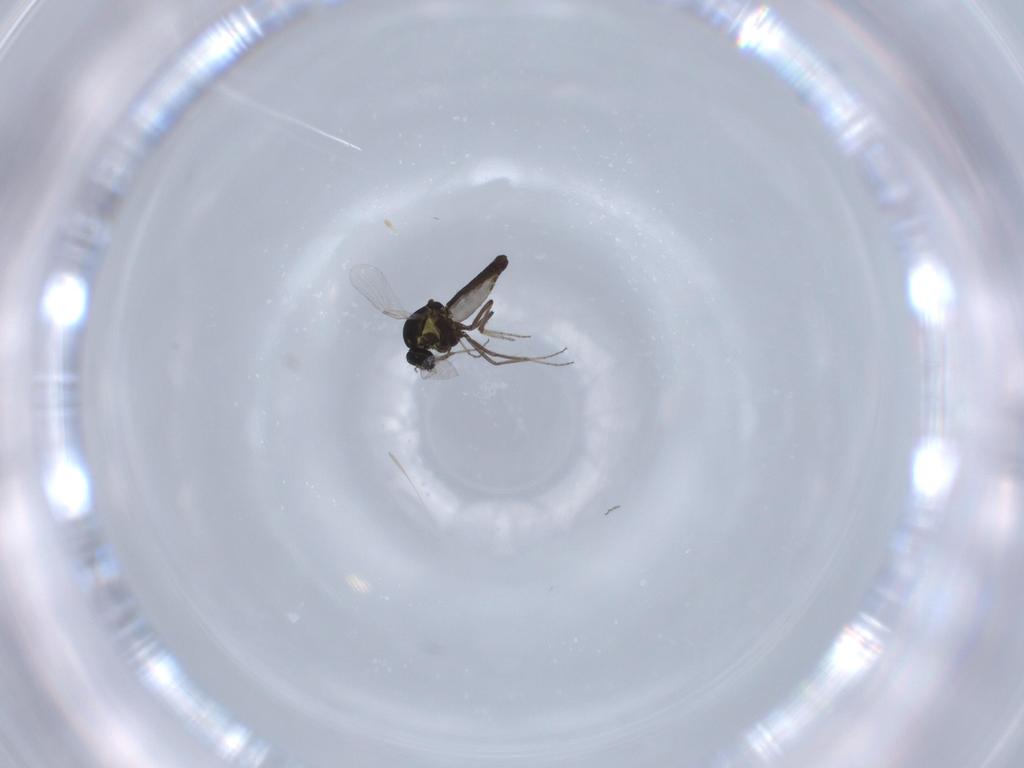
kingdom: Animalia
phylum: Arthropoda
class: Insecta
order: Diptera
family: Ceratopogonidae
